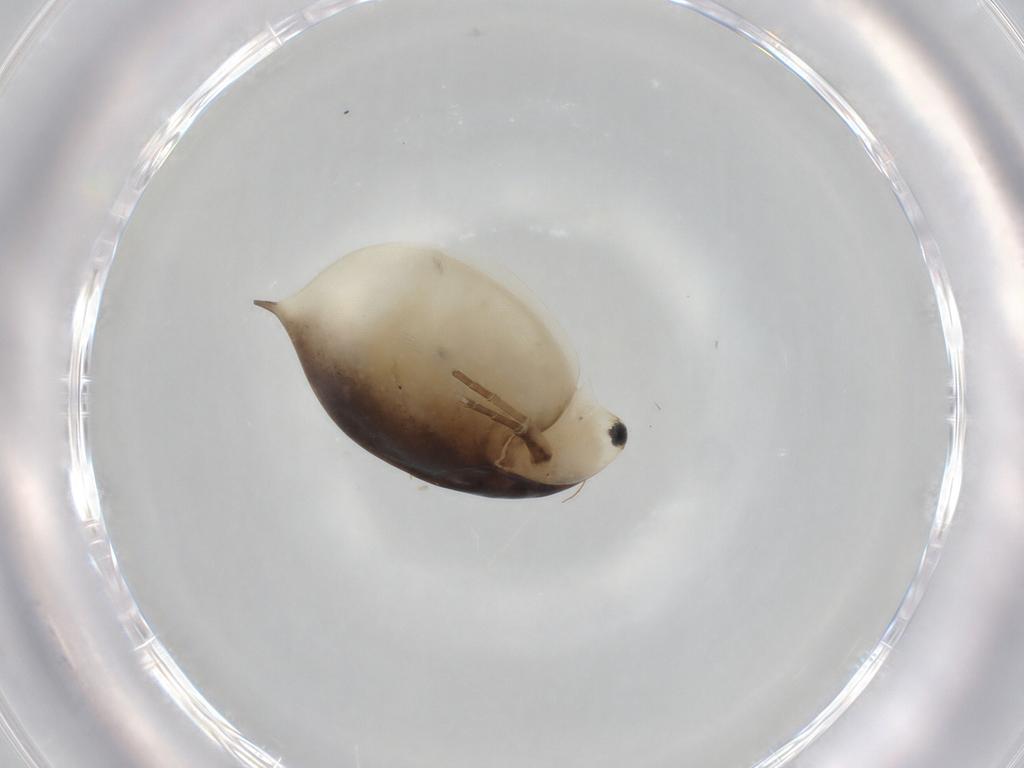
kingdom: Animalia
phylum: Arthropoda
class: Branchiopoda
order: Diplostraca
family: Daphniidae
